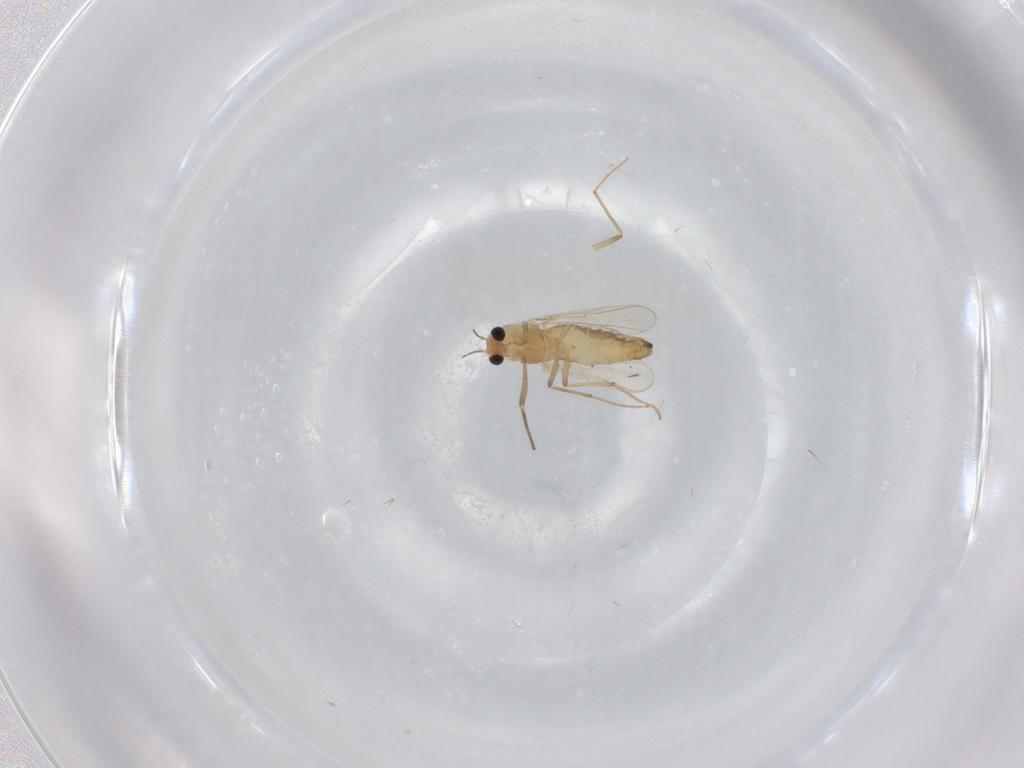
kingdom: Animalia
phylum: Arthropoda
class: Insecta
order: Diptera
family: Chironomidae
